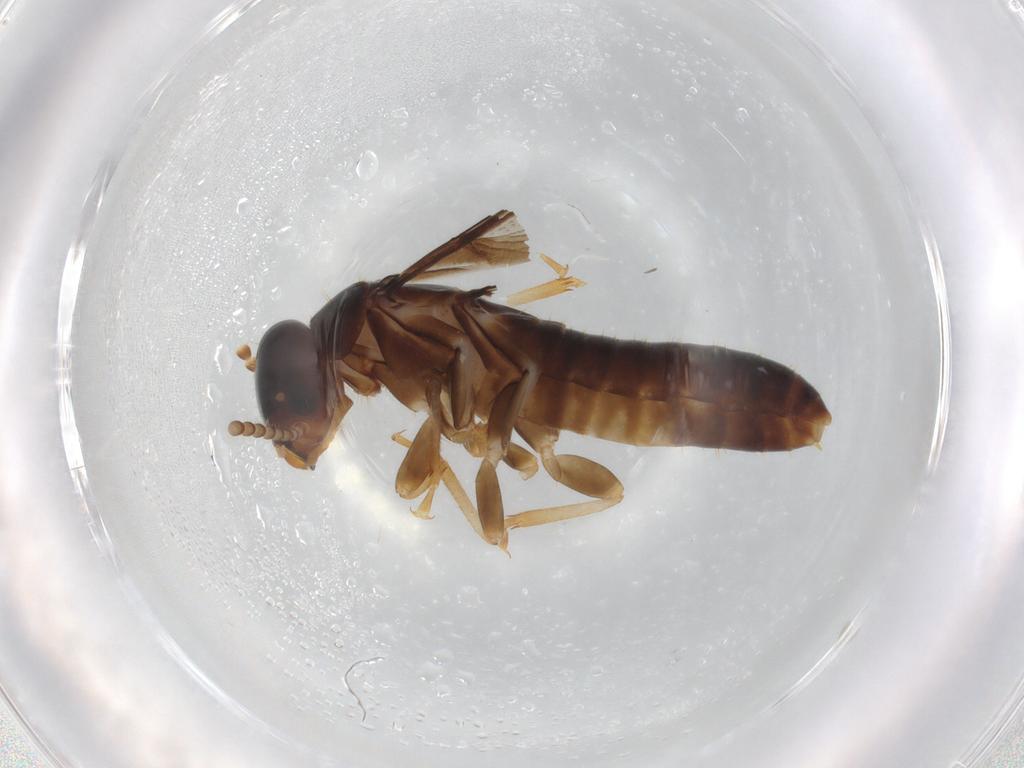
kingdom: Animalia
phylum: Arthropoda
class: Insecta
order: Blattodea
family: Kalotermitidae
